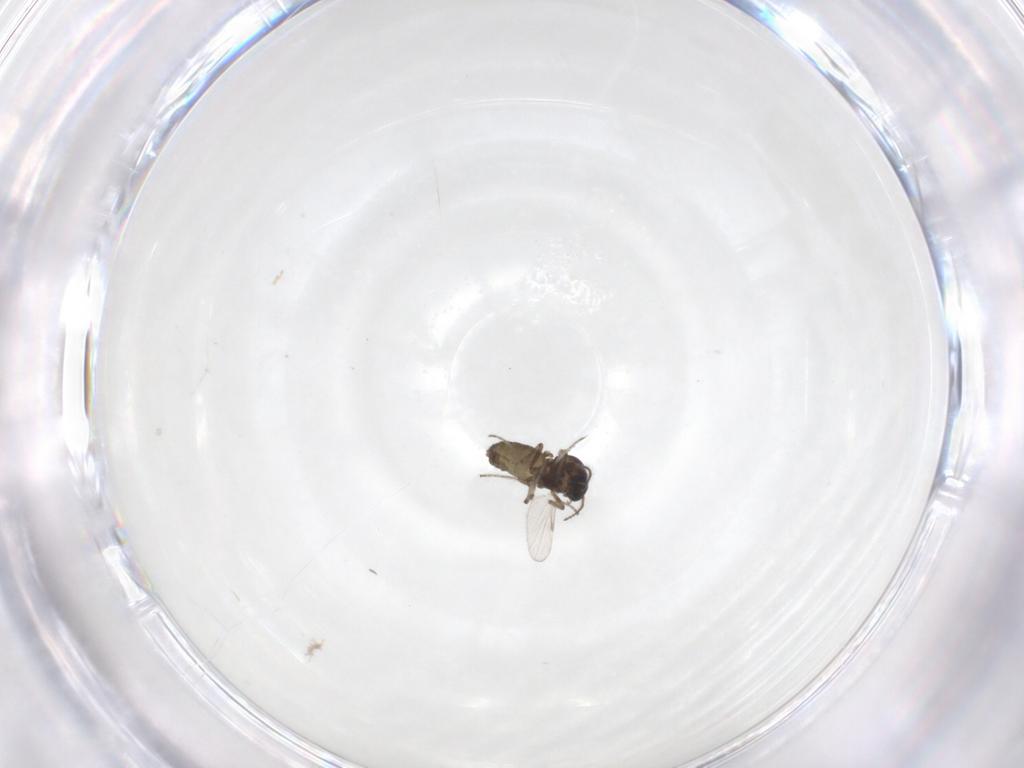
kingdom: Animalia
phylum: Arthropoda
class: Insecta
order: Diptera
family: Ceratopogonidae
